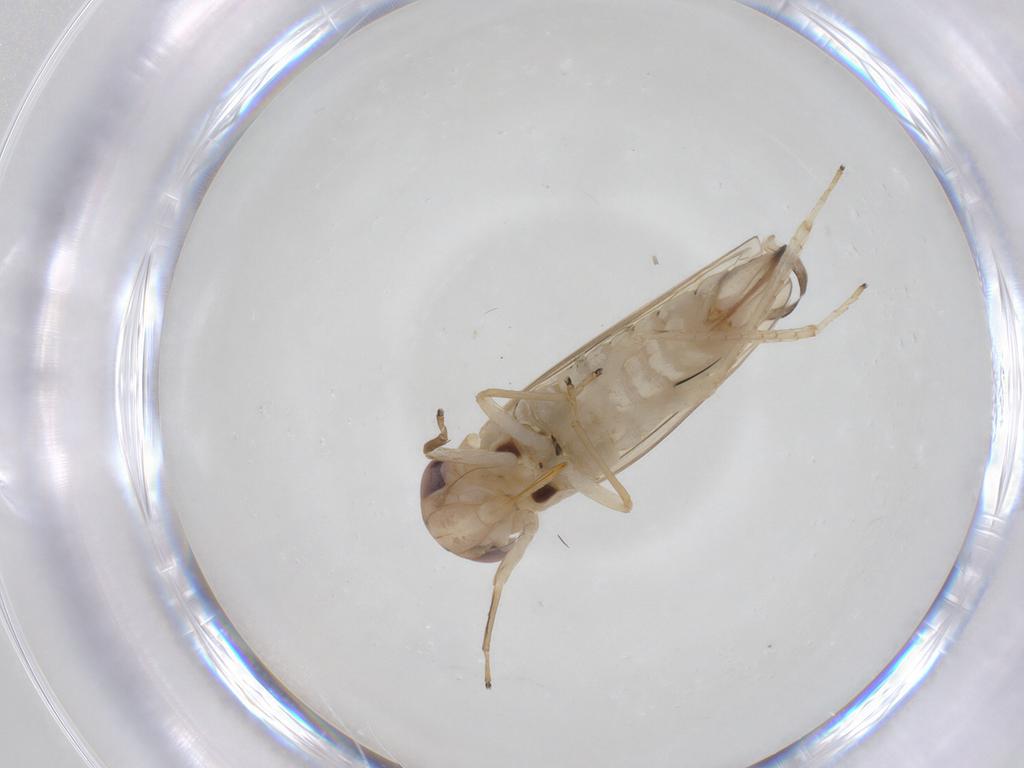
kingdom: Animalia
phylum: Arthropoda
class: Insecta
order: Hemiptera
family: Cicadellidae
